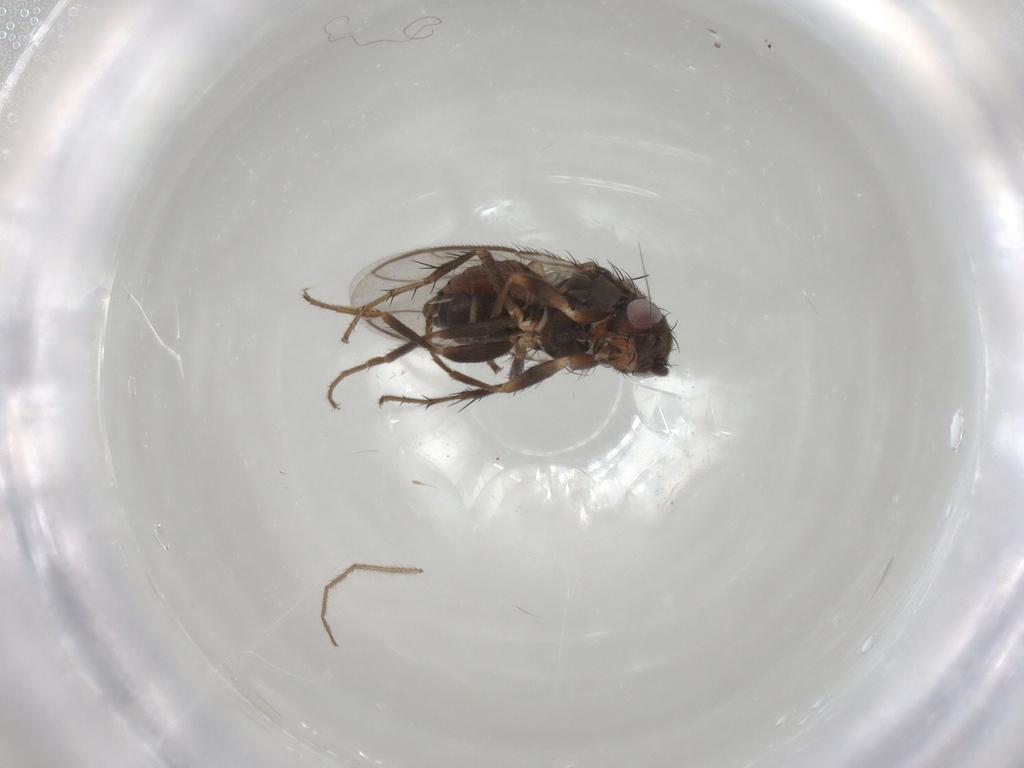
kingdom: Animalia
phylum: Arthropoda
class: Insecta
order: Diptera
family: Sphaeroceridae
